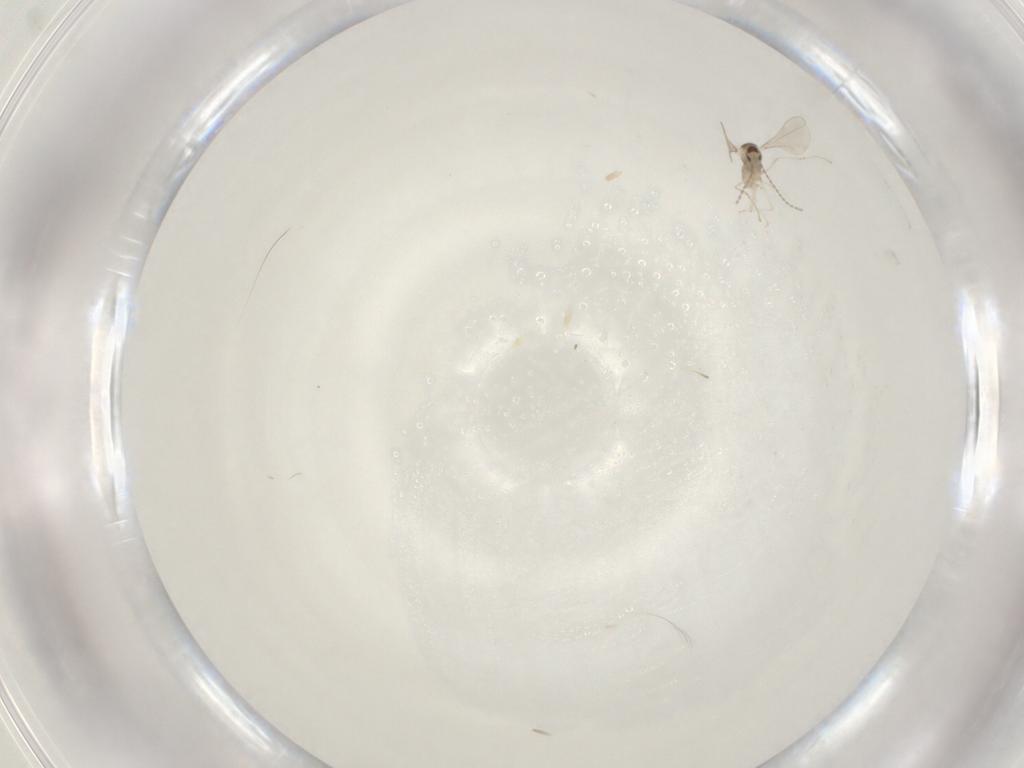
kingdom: Animalia
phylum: Arthropoda
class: Insecta
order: Diptera
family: Cecidomyiidae
